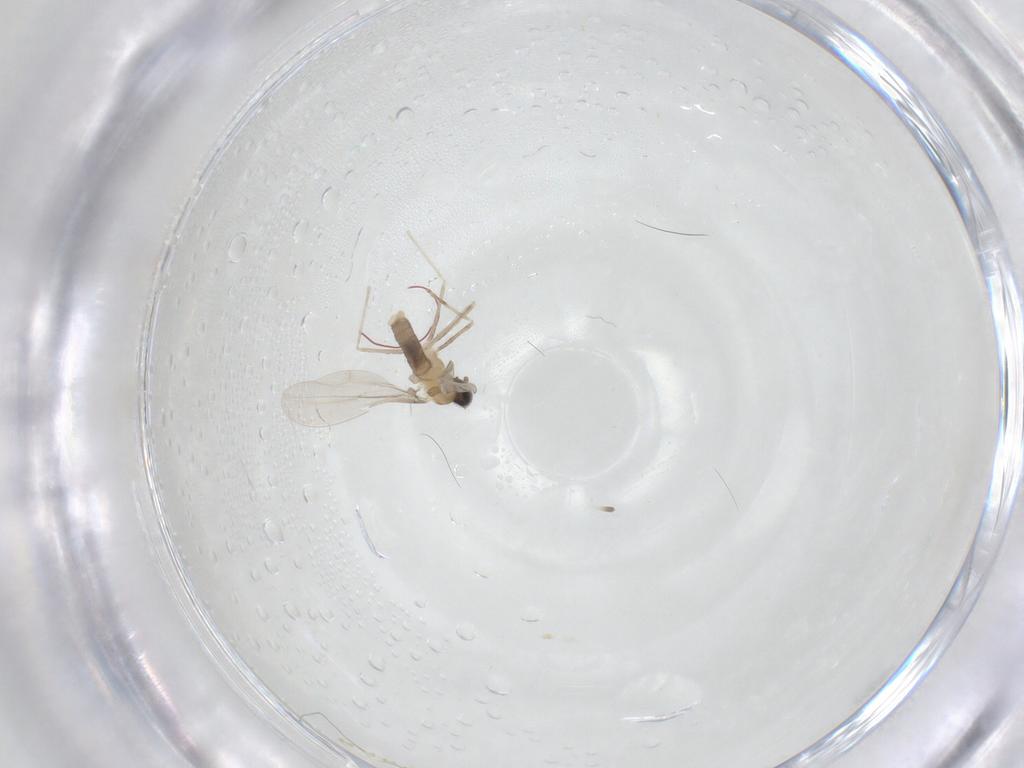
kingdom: Animalia
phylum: Arthropoda
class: Insecta
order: Diptera
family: Cecidomyiidae
